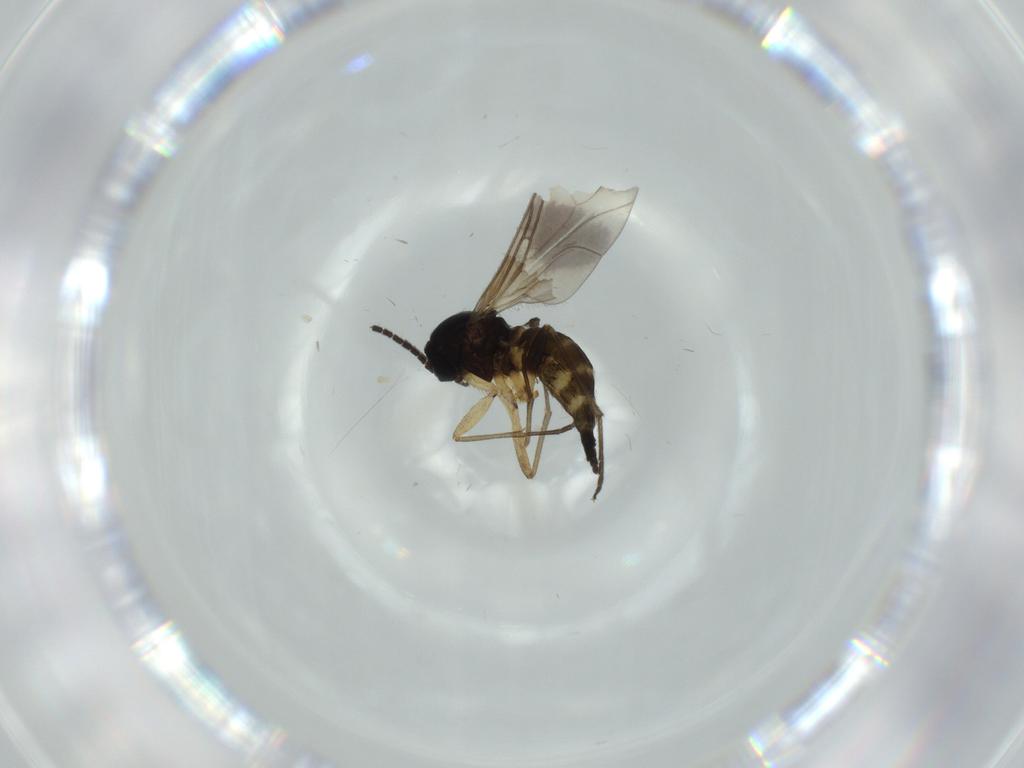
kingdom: Animalia
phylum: Arthropoda
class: Insecta
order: Diptera
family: Sciaridae
